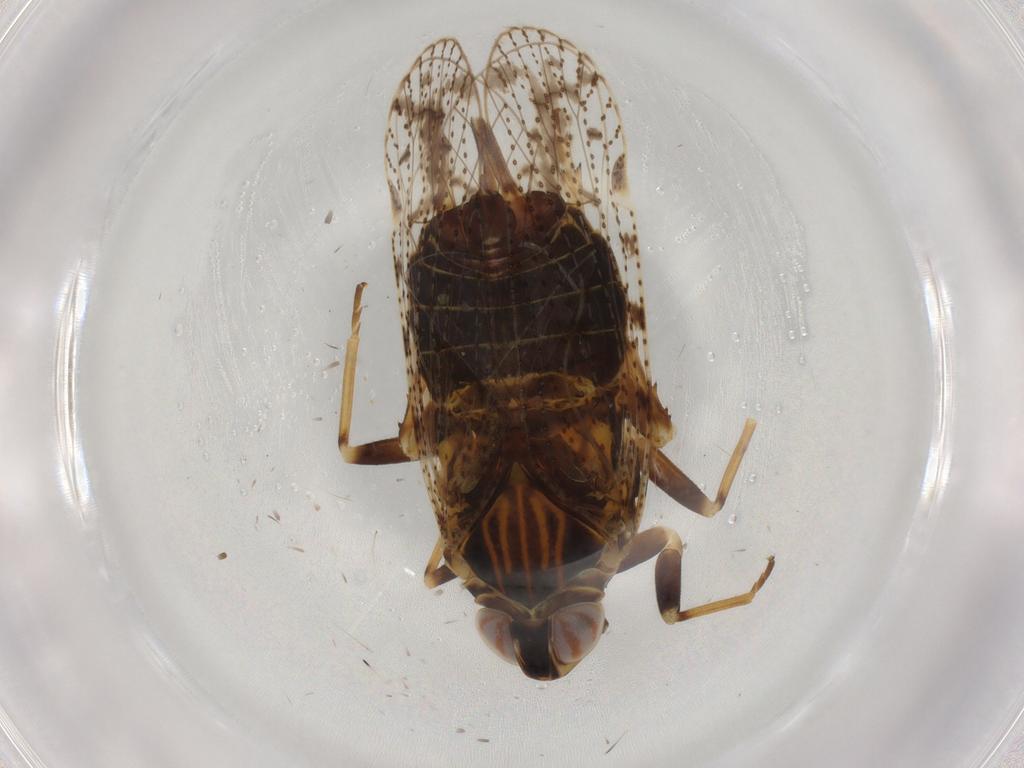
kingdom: Animalia
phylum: Arthropoda
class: Insecta
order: Hemiptera
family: Cixiidae
